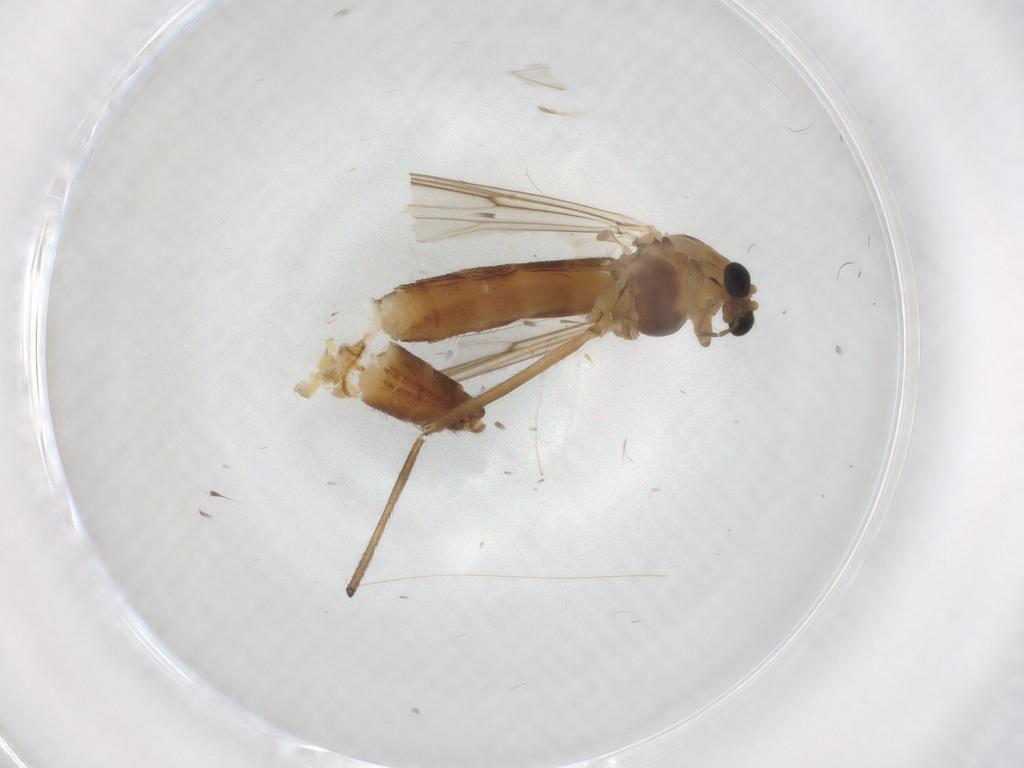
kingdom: Animalia
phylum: Arthropoda
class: Insecta
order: Diptera
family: Chironomidae
